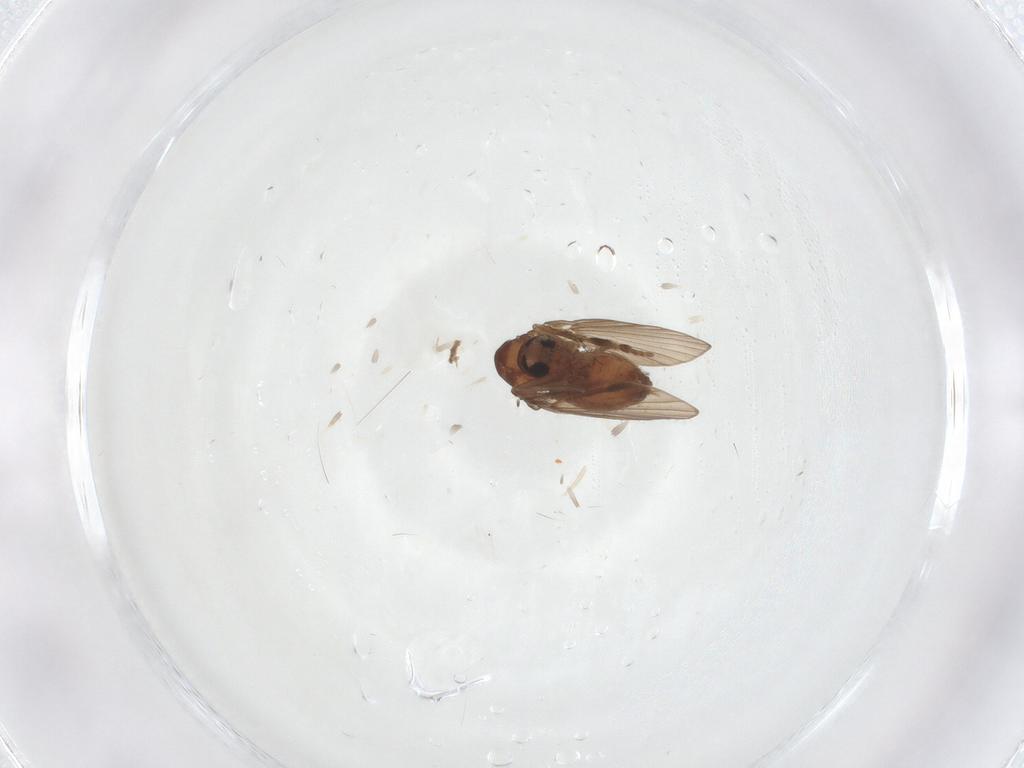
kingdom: Animalia
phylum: Arthropoda
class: Insecta
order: Diptera
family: Psychodidae
